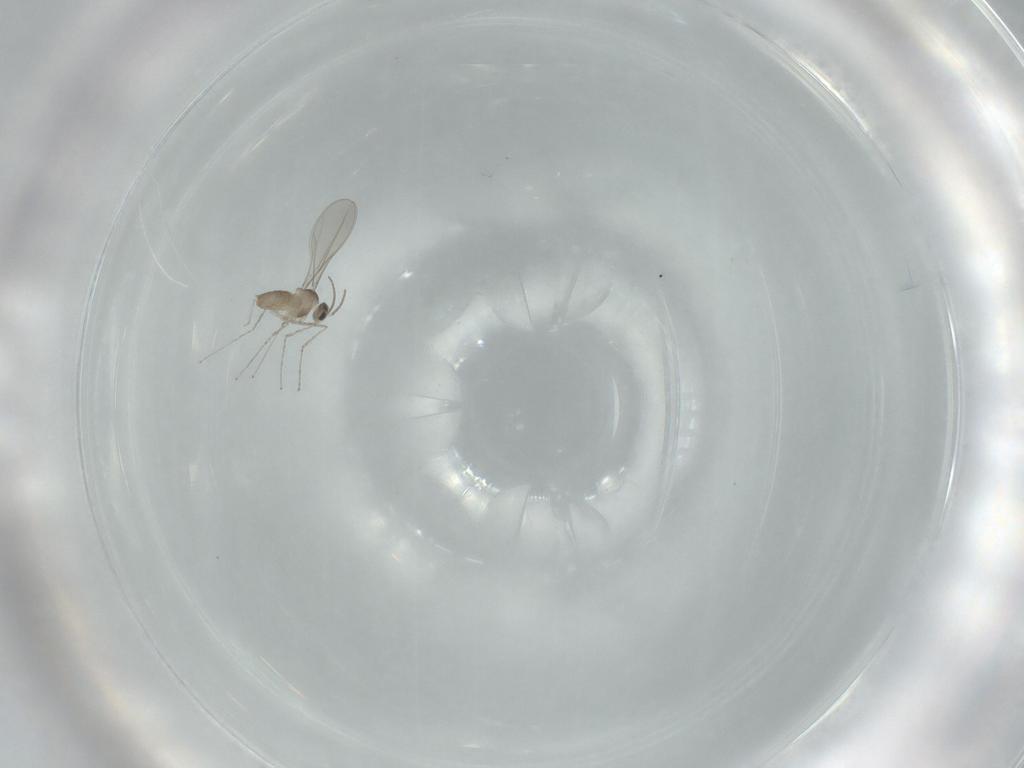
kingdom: Animalia
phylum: Arthropoda
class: Insecta
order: Diptera
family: Cecidomyiidae
